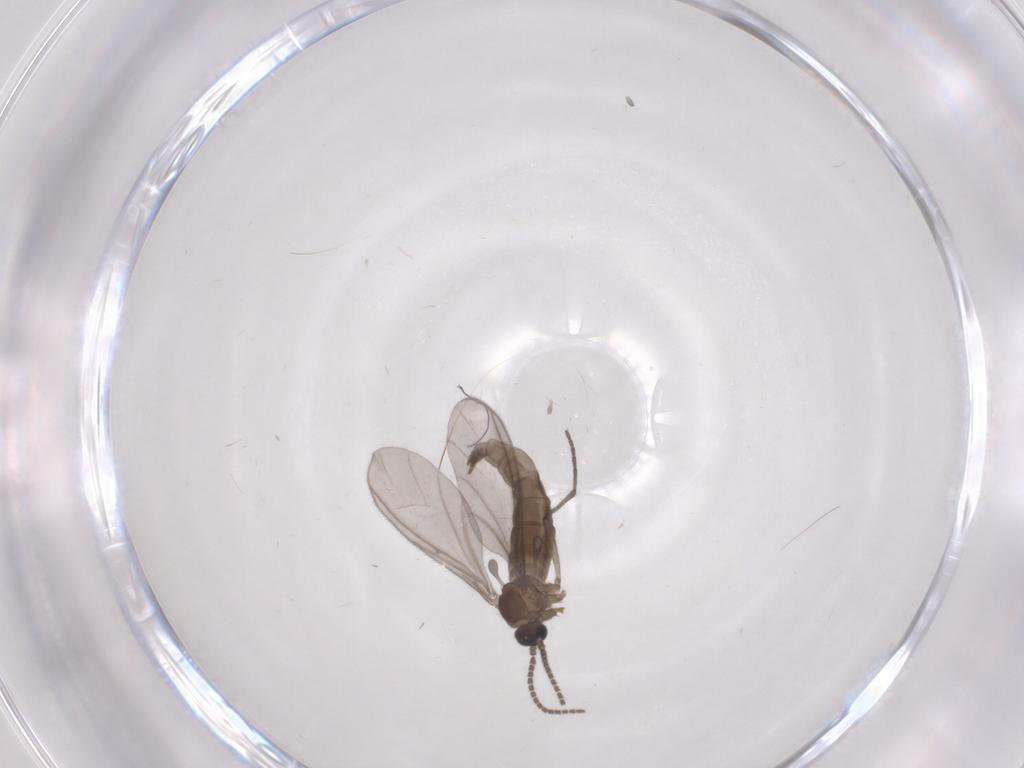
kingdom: Animalia
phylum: Arthropoda
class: Insecta
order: Diptera
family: Sciaridae
